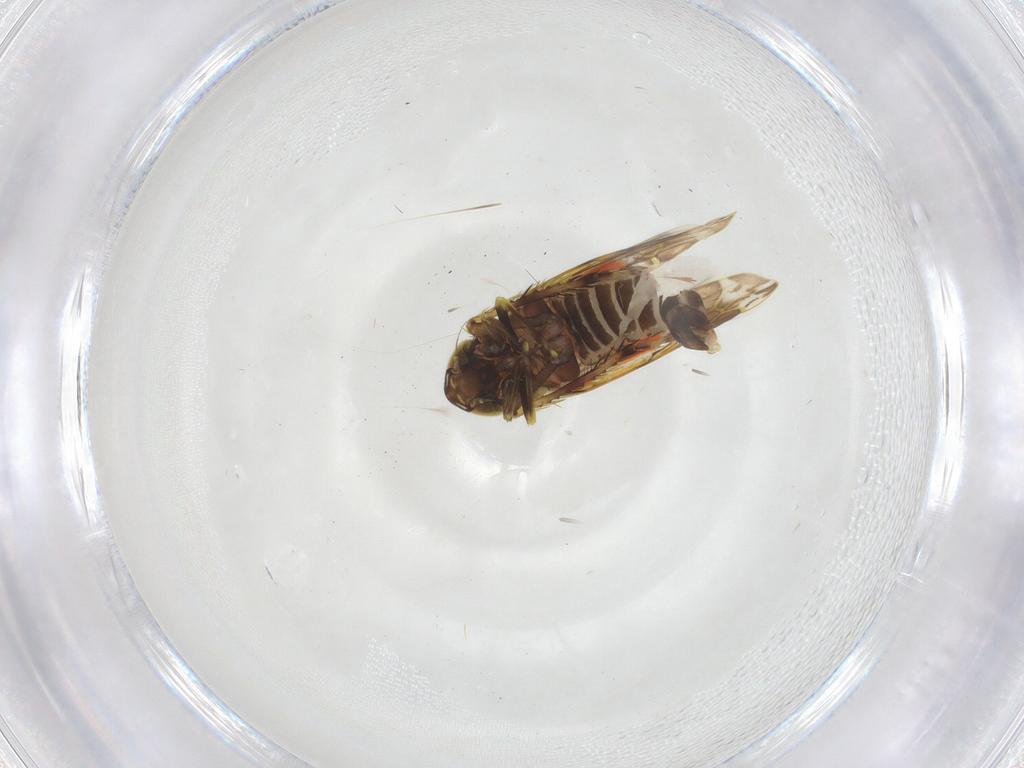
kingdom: Animalia
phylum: Arthropoda
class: Insecta
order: Hemiptera
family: Cicadellidae
